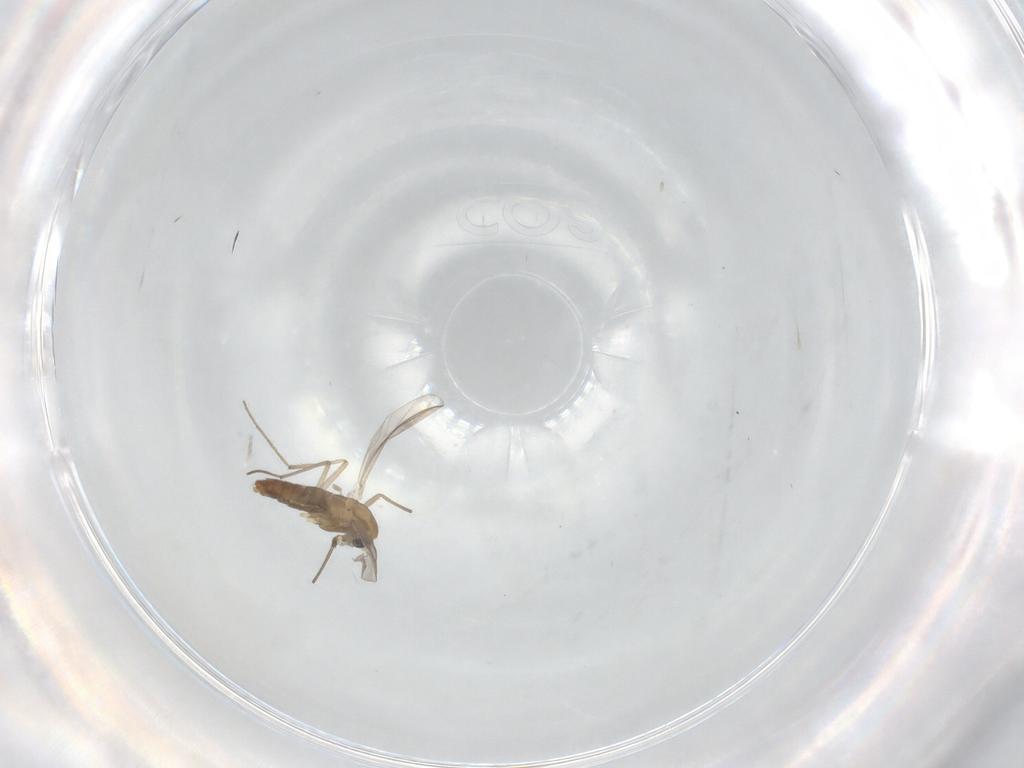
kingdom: Animalia
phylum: Arthropoda
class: Insecta
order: Diptera
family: Chironomidae
